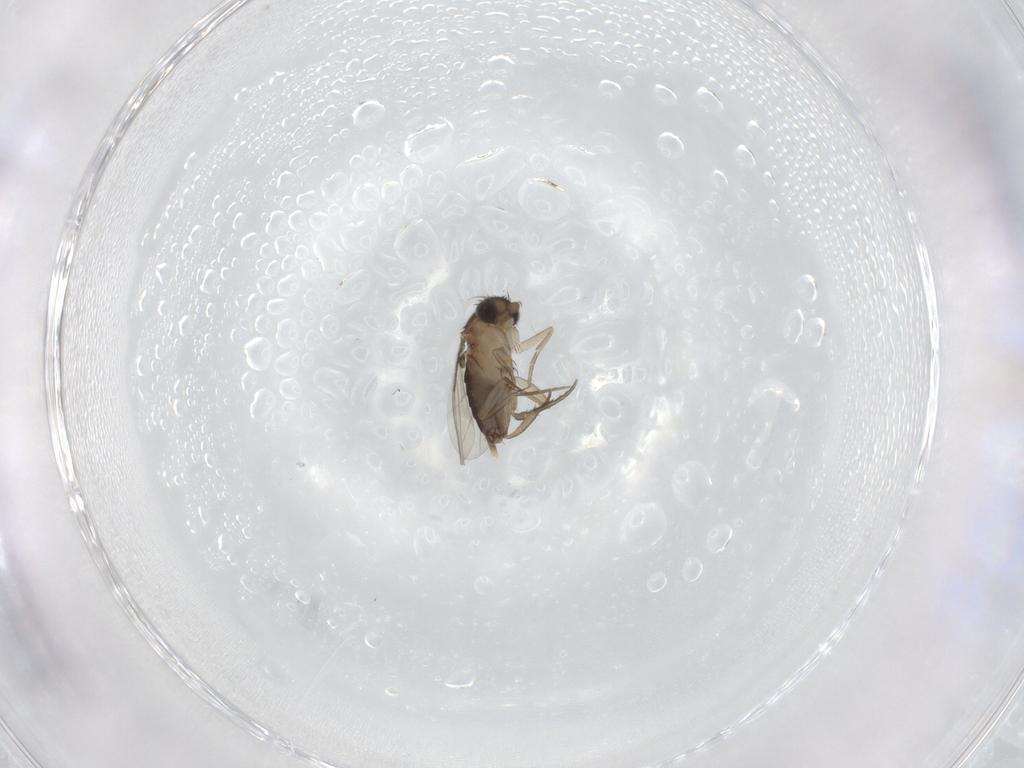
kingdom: Animalia
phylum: Arthropoda
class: Insecta
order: Diptera
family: Phoridae
